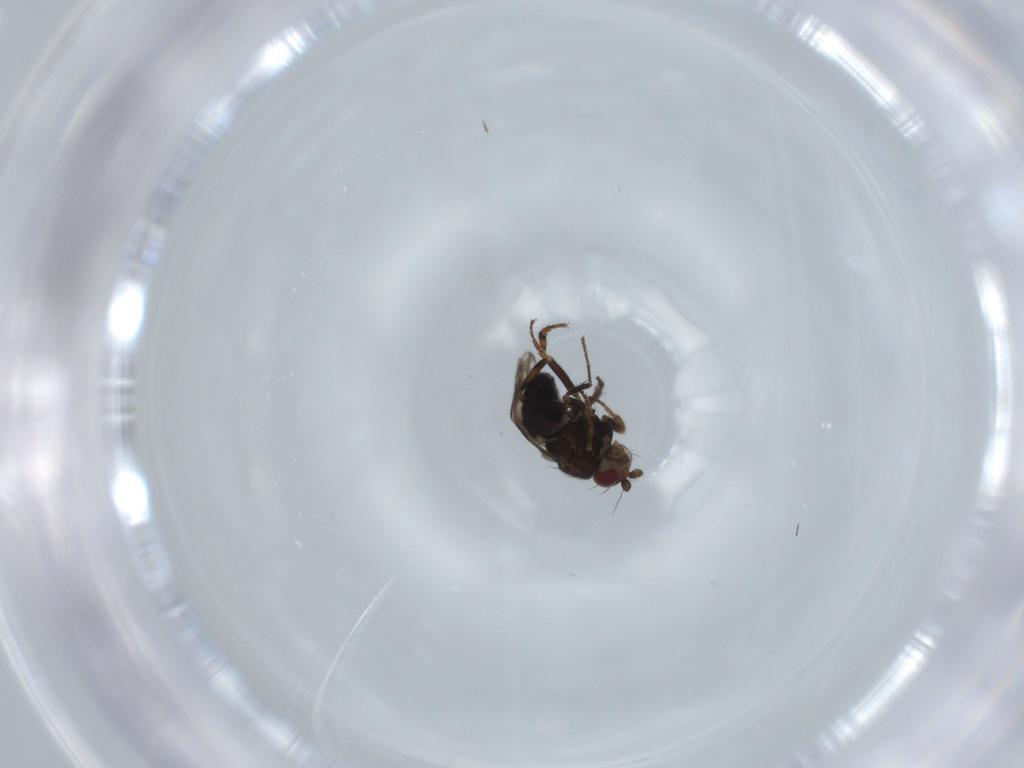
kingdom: Animalia
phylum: Arthropoda
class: Insecta
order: Diptera
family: Sphaeroceridae
